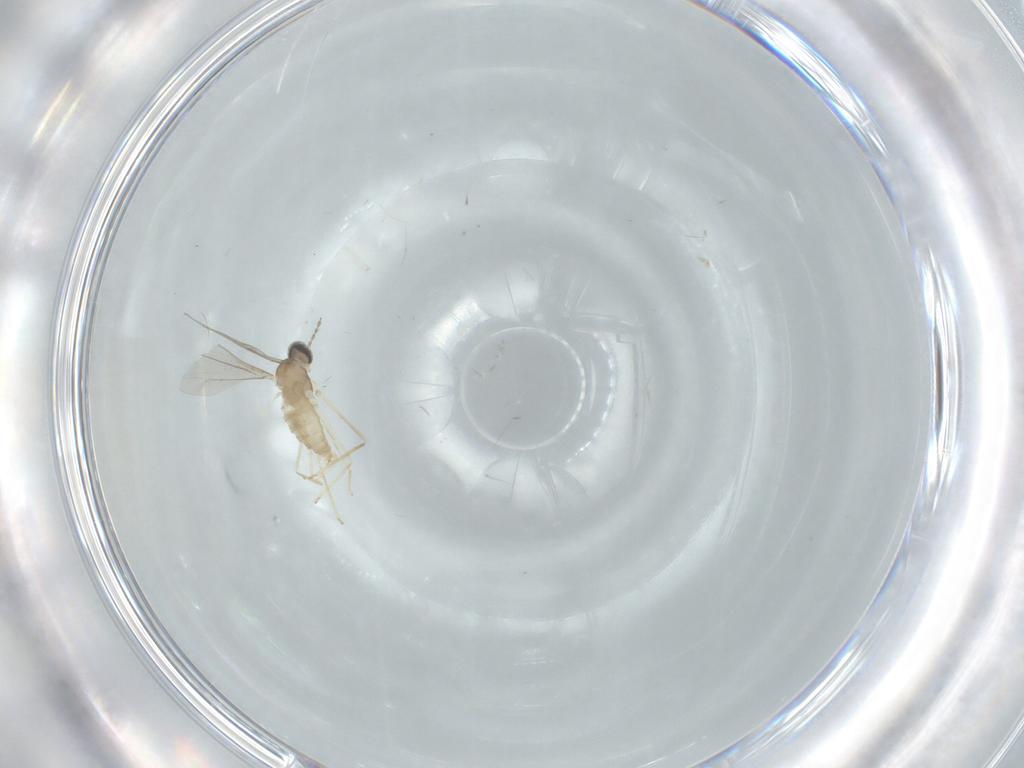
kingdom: Animalia
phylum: Arthropoda
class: Insecta
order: Diptera
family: Cecidomyiidae
